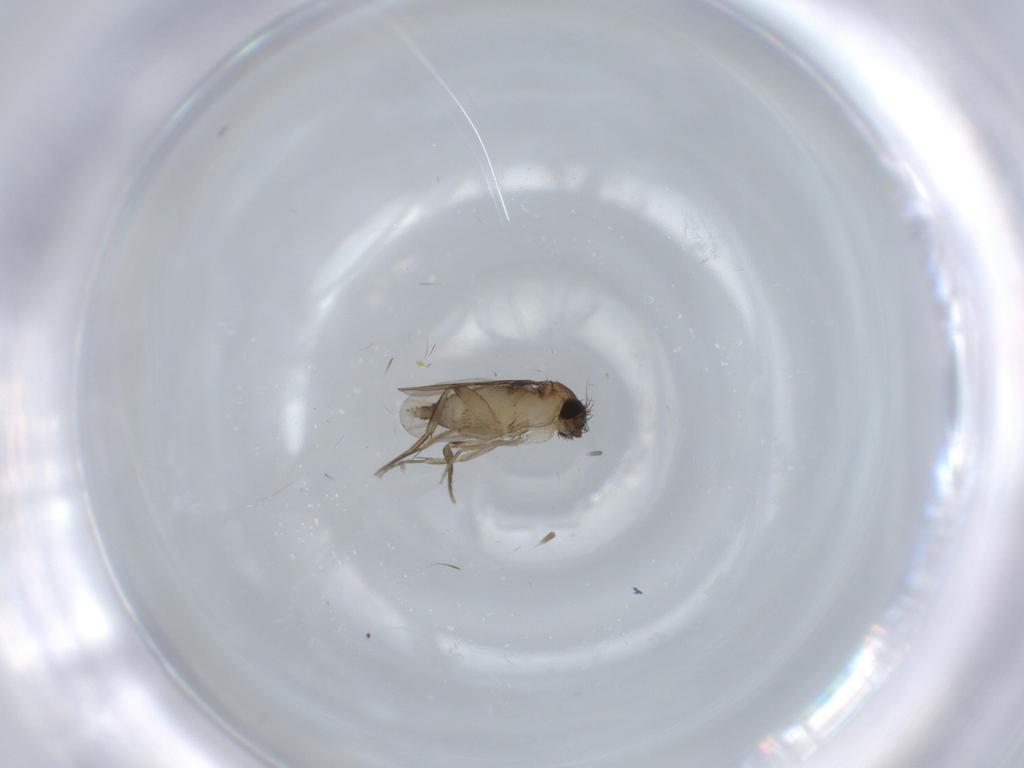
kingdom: Animalia
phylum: Arthropoda
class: Insecta
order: Diptera
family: Phoridae
